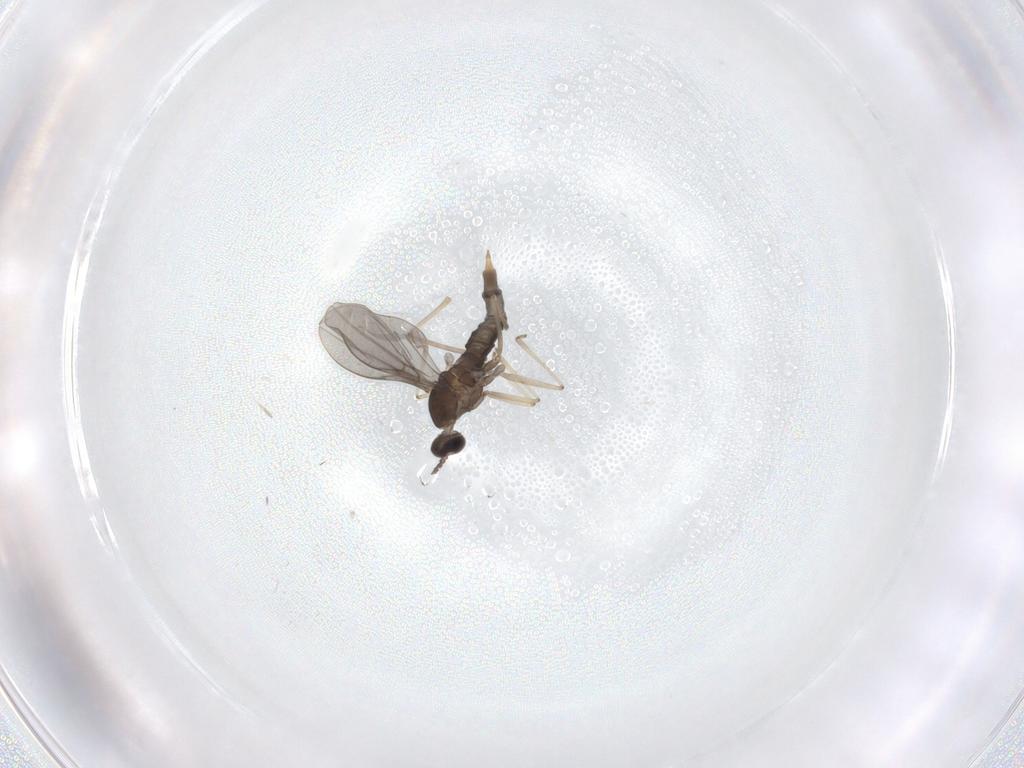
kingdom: Animalia
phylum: Arthropoda
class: Insecta
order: Diptera
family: Cecidomyiidae
